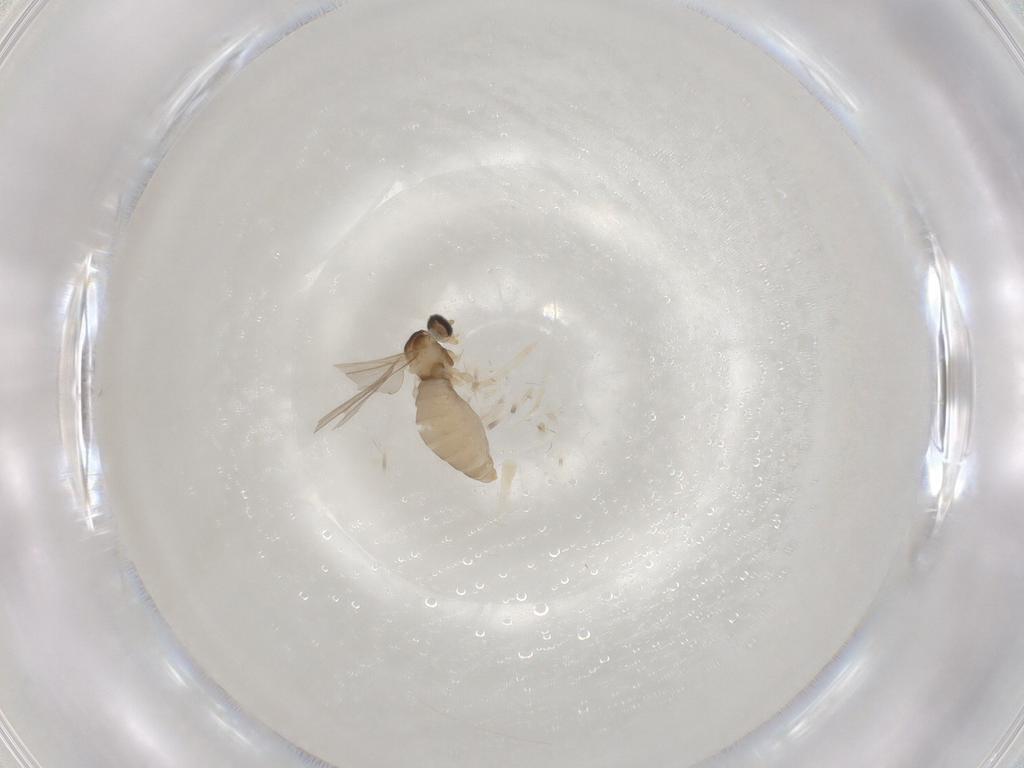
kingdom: Animalia
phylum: Arthropoda
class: Insecta
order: Diptera
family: Cecidomyiidae
